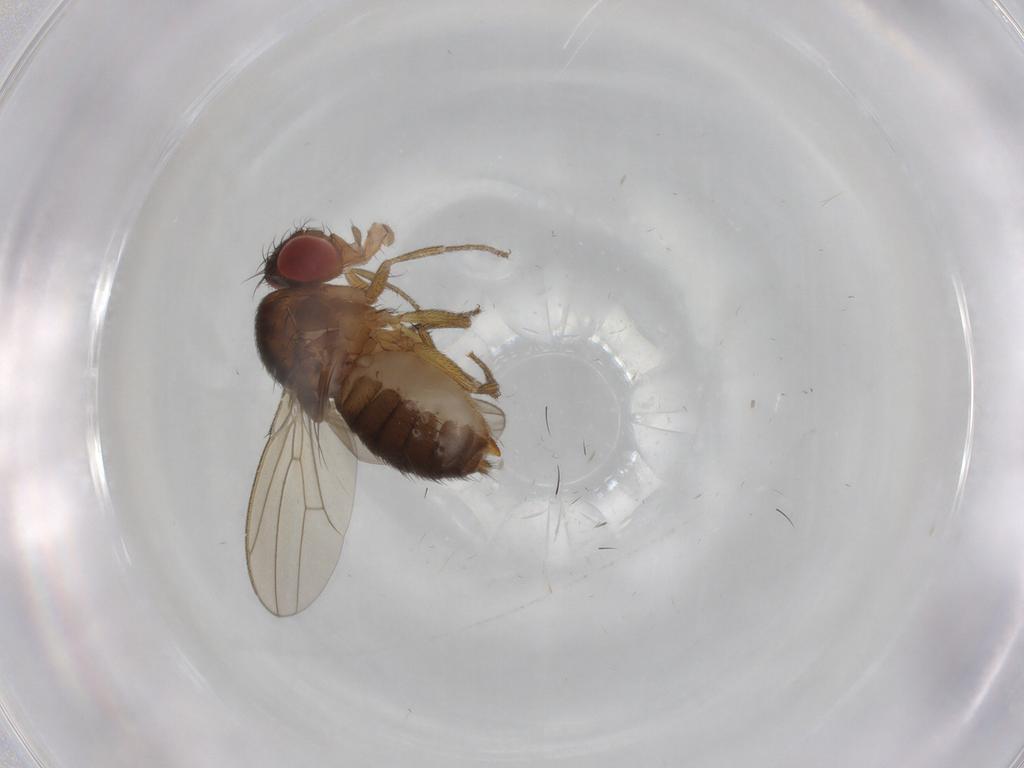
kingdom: Animalia
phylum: Arthropoda
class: Insecta
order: Diptera
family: Drosophilidae
